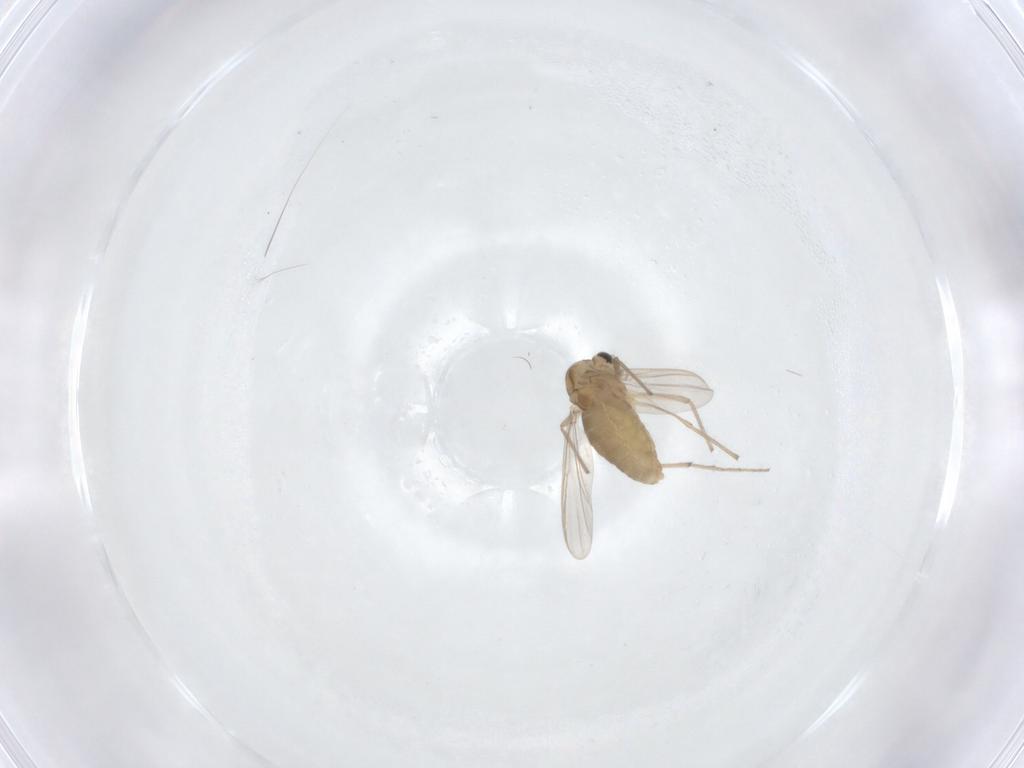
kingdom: Animalia
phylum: Arthropoda
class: Insecta
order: Diptera
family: Chironomidae
